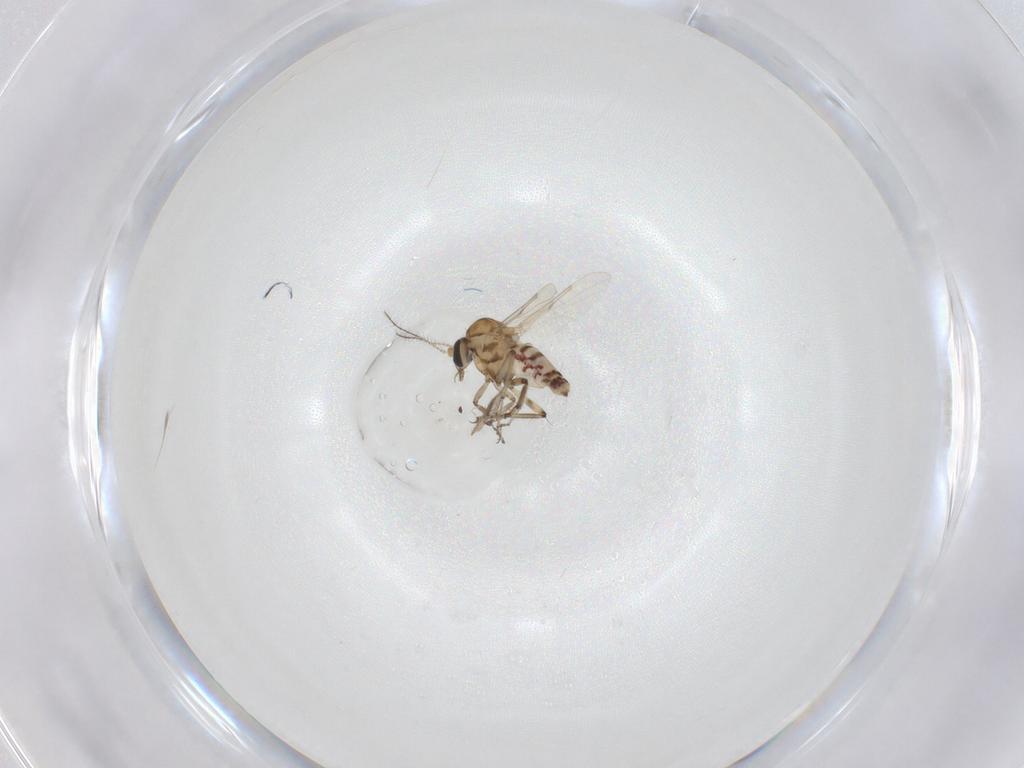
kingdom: Animalia
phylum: Arthropoda
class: Insecta
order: Diptera
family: Ceratopogonidae
